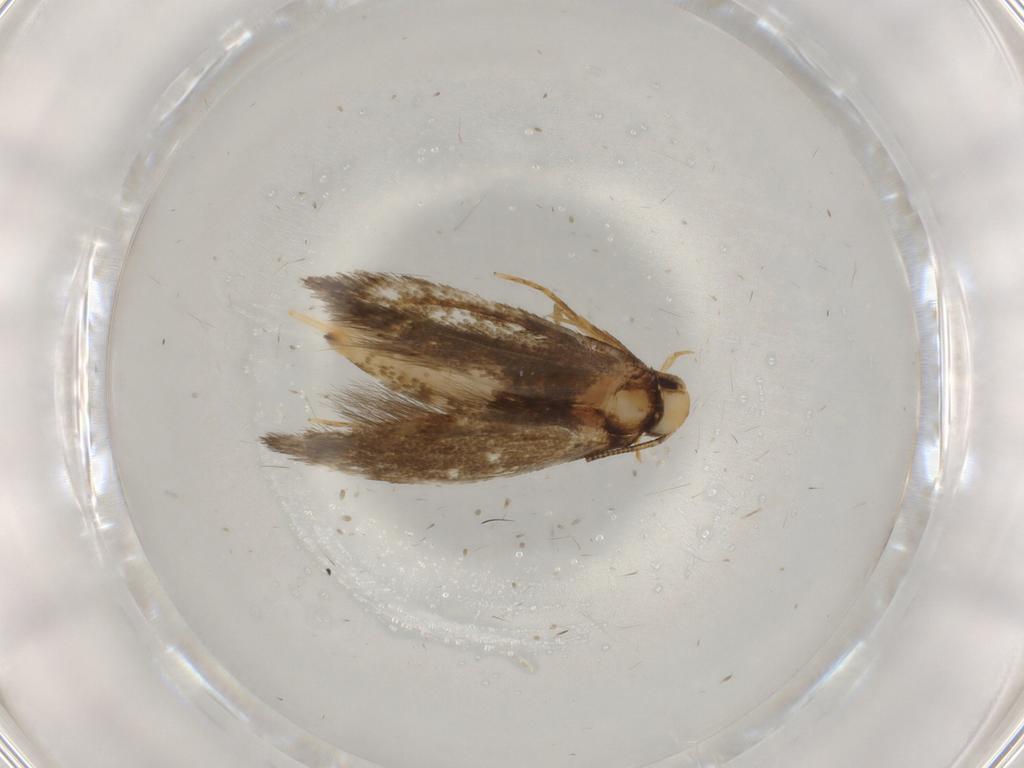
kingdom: Animalia
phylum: Arthropoda
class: Insecta
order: Lepidoptera
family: Tineidae
